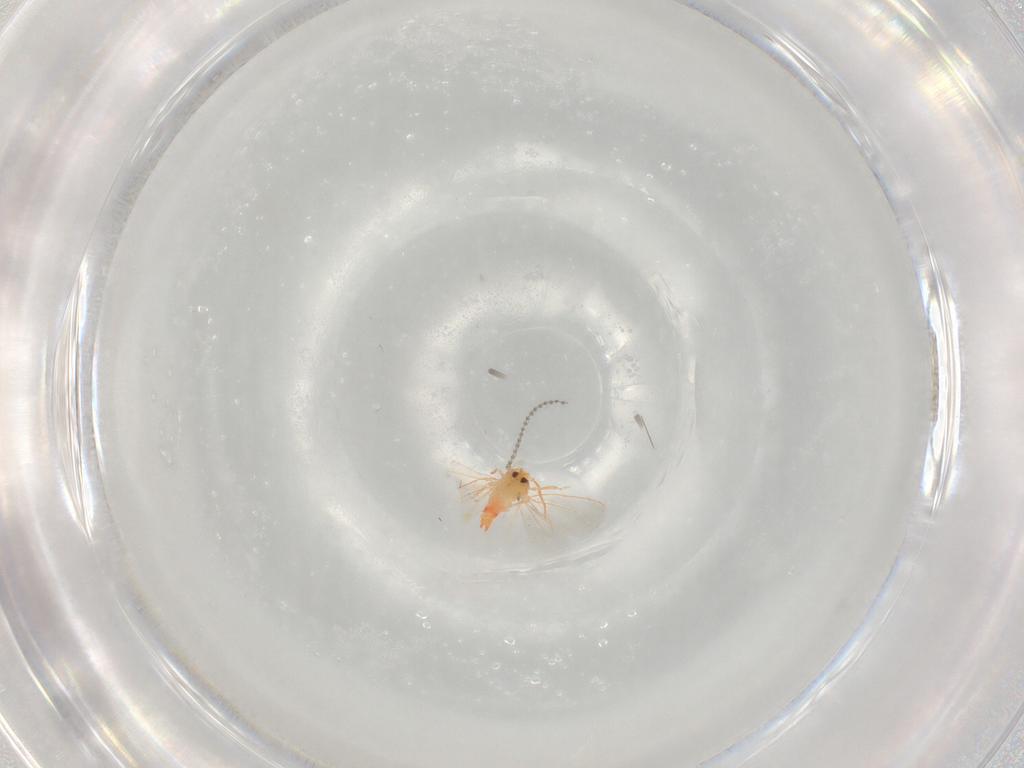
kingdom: Animalia
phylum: Arthropoda
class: Insecta
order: Hemiptera
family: Aleyrodidae
